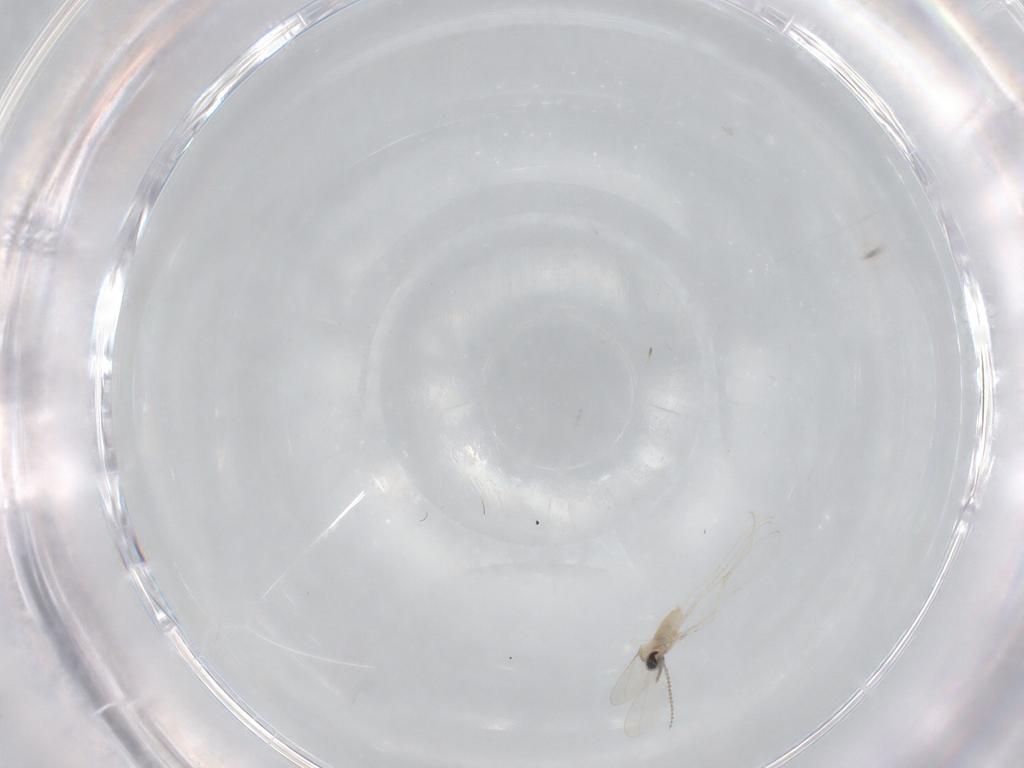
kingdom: Animalia
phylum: Arthropoda
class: Insecta
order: Diptera
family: Cecidomyiidae
